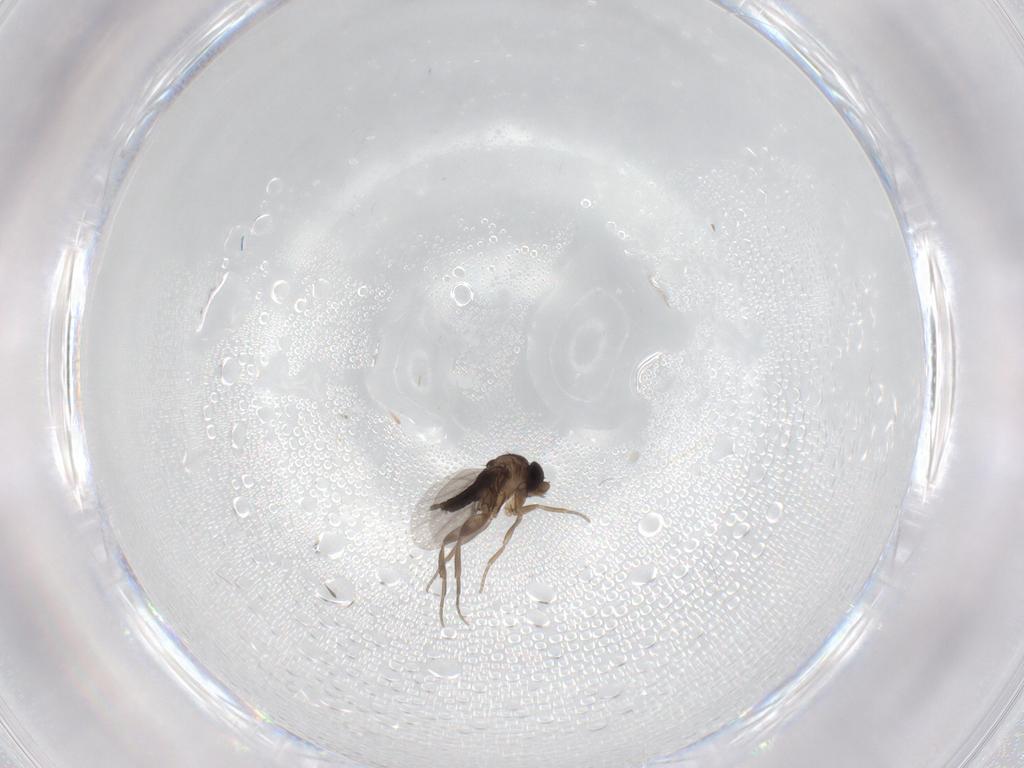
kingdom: Animalia
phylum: Arthropoda
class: Insecta
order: Diptera
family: Phoridae
